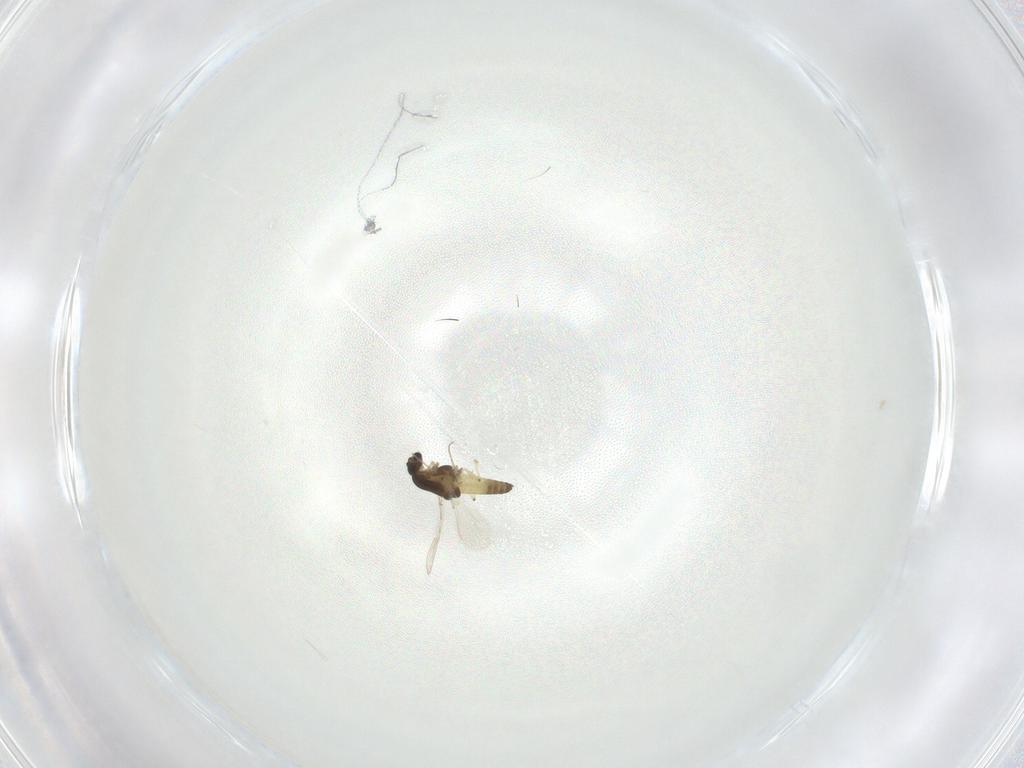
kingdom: Animalia
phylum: Arthropoda
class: Insecta
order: Diptera
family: Chironomidae
